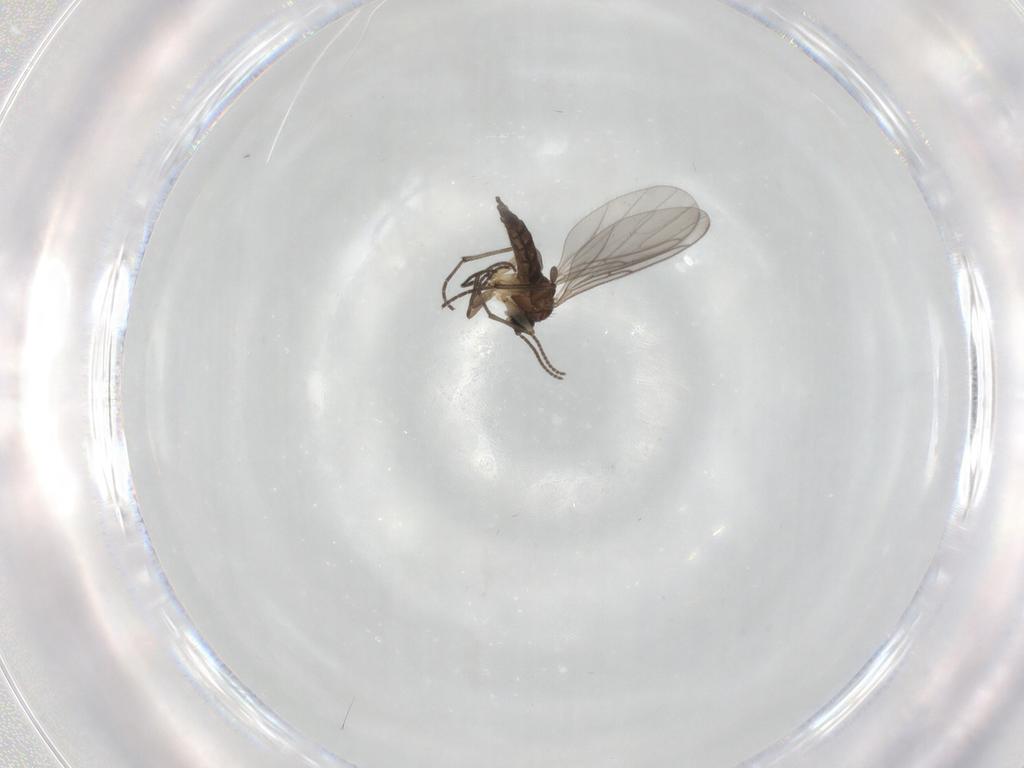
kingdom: Animalia
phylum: Arthropoda
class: Insecta
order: Diptera
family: Sciaridae
